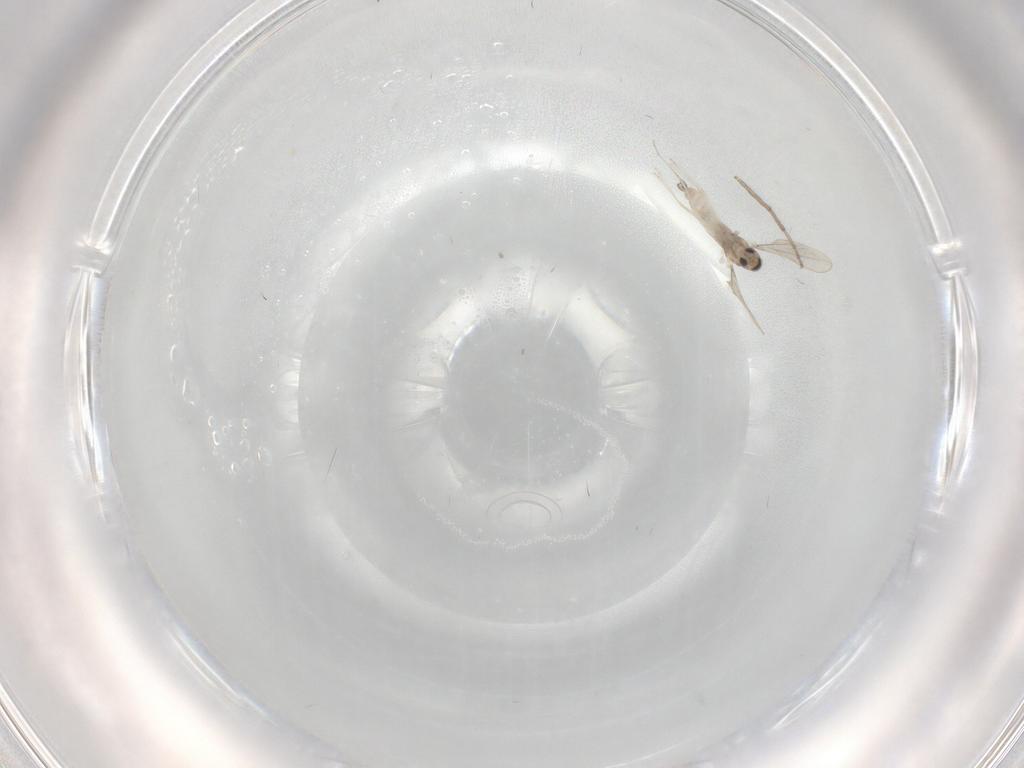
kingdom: Animalia
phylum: Arthropoda
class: Insecta
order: Diptera
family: Cecidomyiidae
